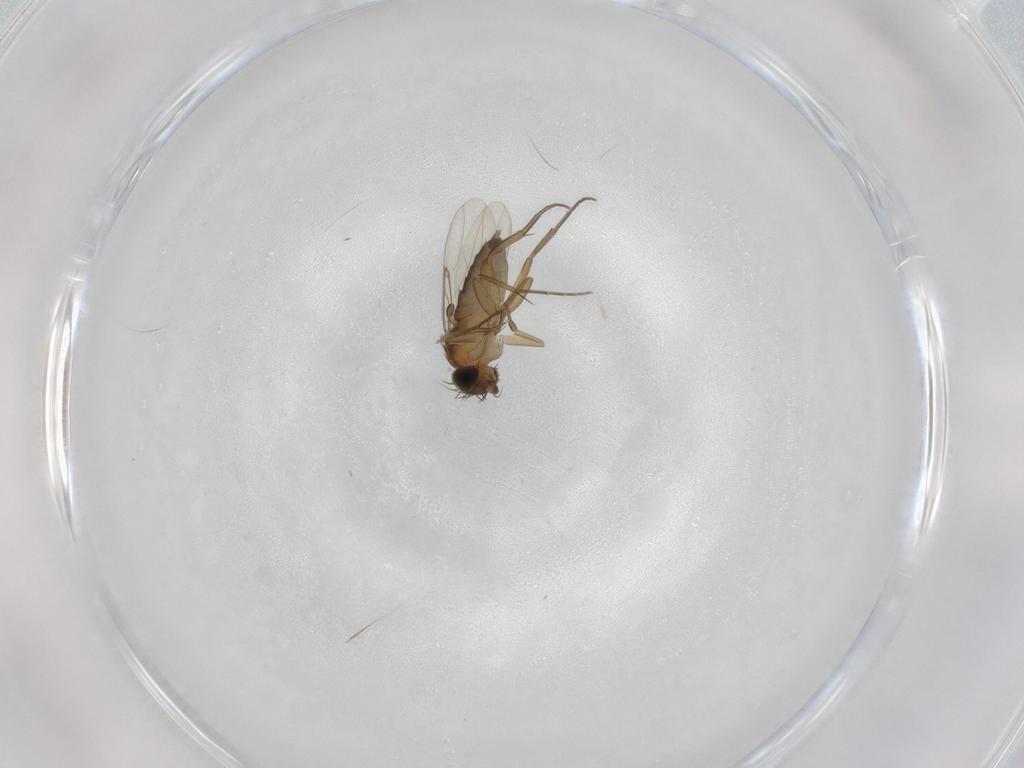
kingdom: Animalia
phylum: Arthropoda
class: Insecta
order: Diptera
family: Phoridae
